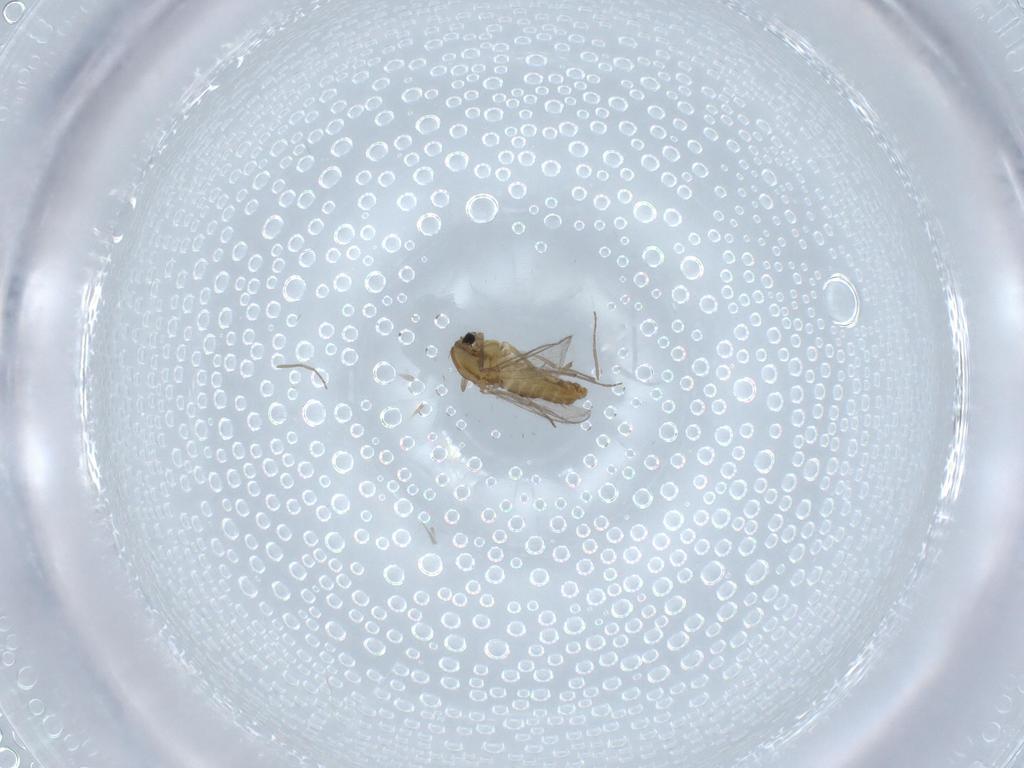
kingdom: Animalia
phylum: Arthropoda
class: Insecta
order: Diptera
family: Chironomidae
